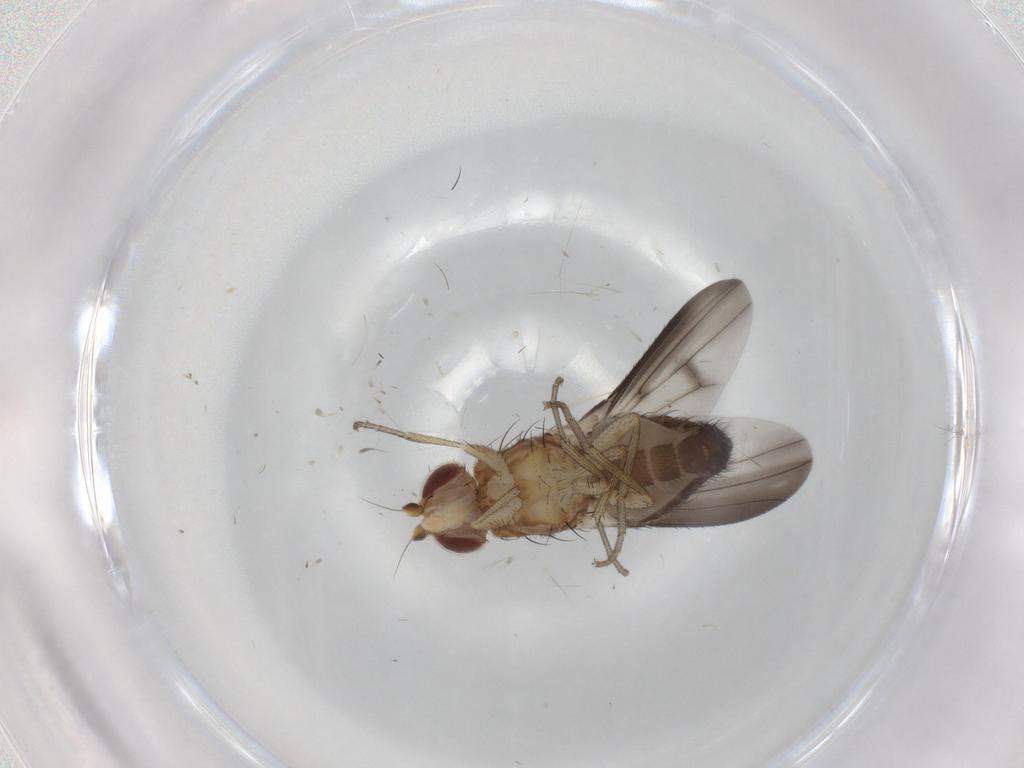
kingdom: Animalia
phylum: Arthropoda
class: Insecta
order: Diptera
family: Heleomyzidae
